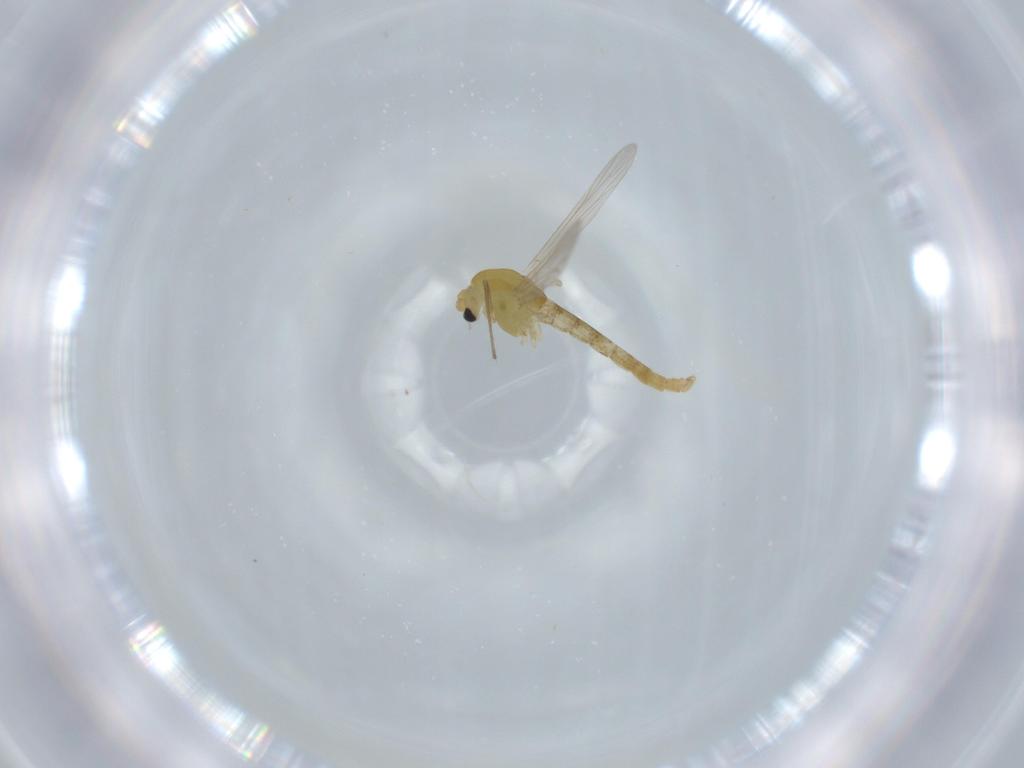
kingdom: Animalia
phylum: Arthropoda
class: Insecta
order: Diptera
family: Chironomidae
